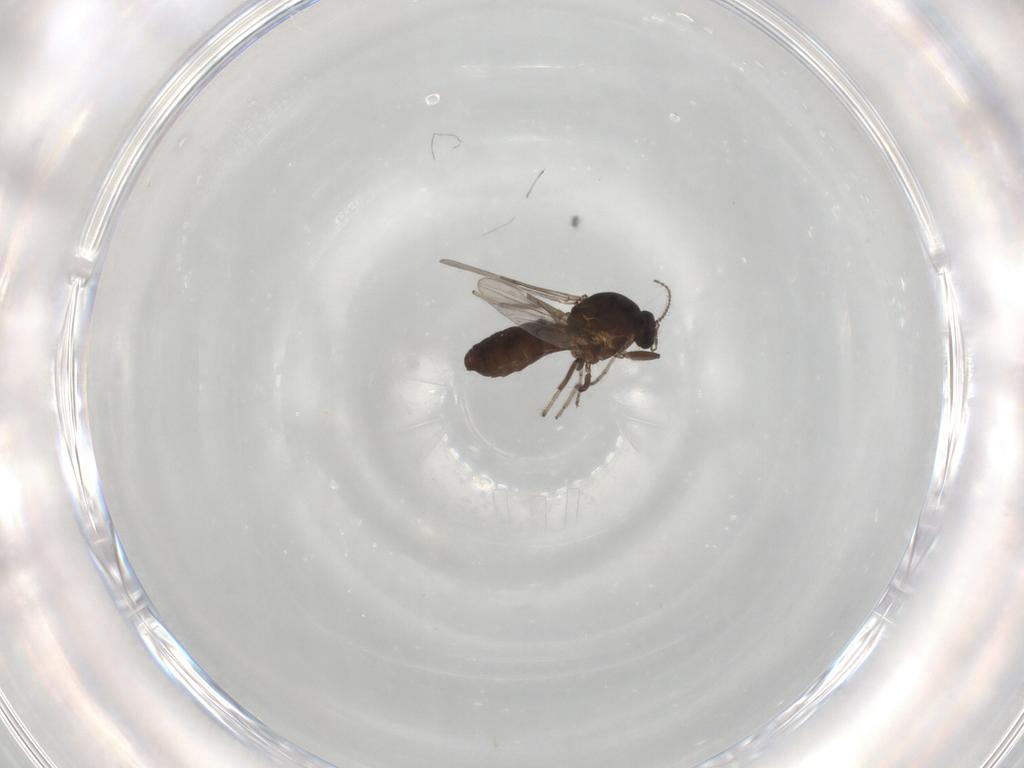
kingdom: Animalia
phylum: Arthropoda
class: Insecta
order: Diptera
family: Ceratopogonidae
